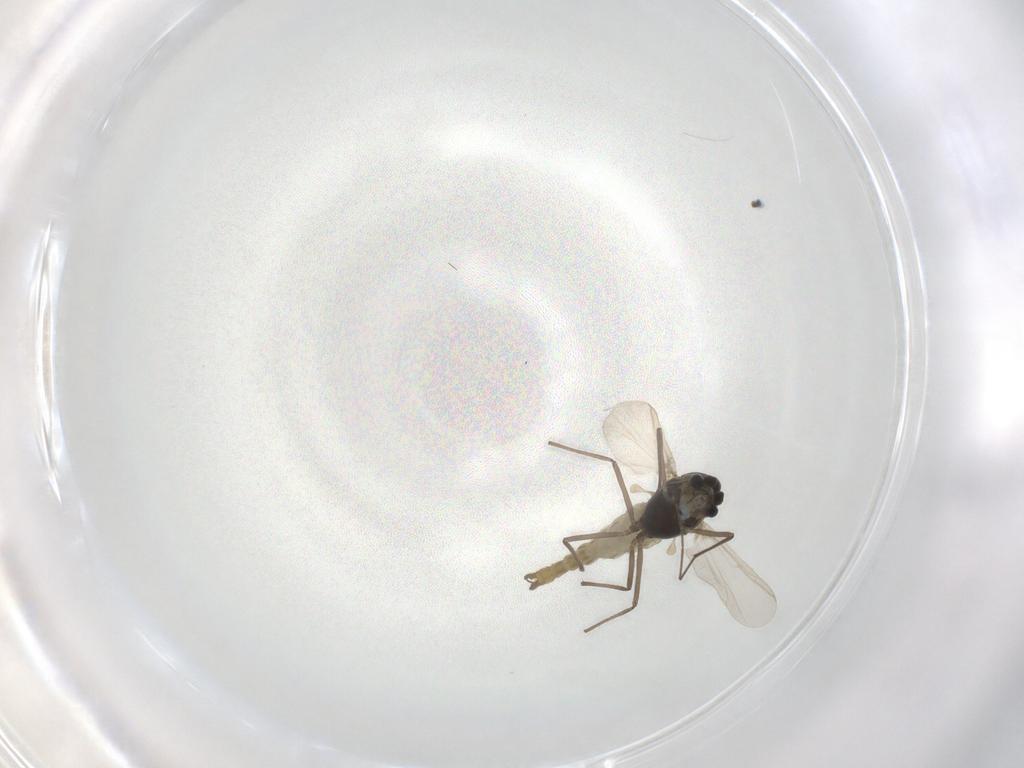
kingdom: Animalia
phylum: Arthropoda
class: Insecta
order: Diptera
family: Chironomidae
